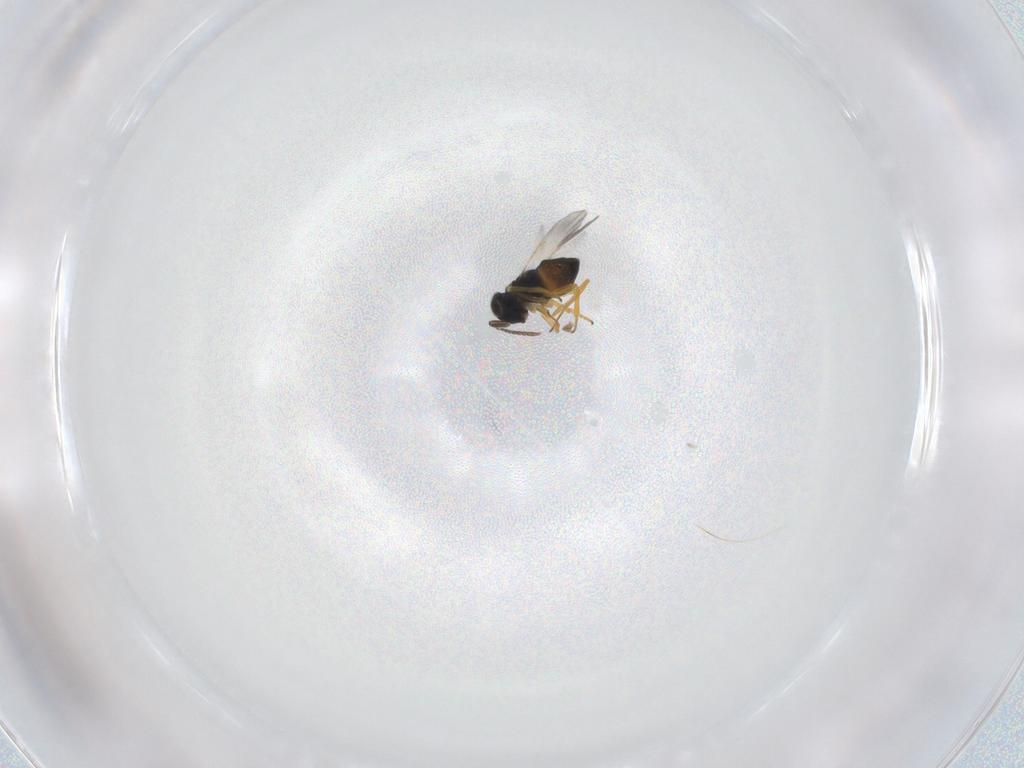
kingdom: Animalia
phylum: Arthropoda
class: Insecta
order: Hymenoptera
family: Encyrtidae
